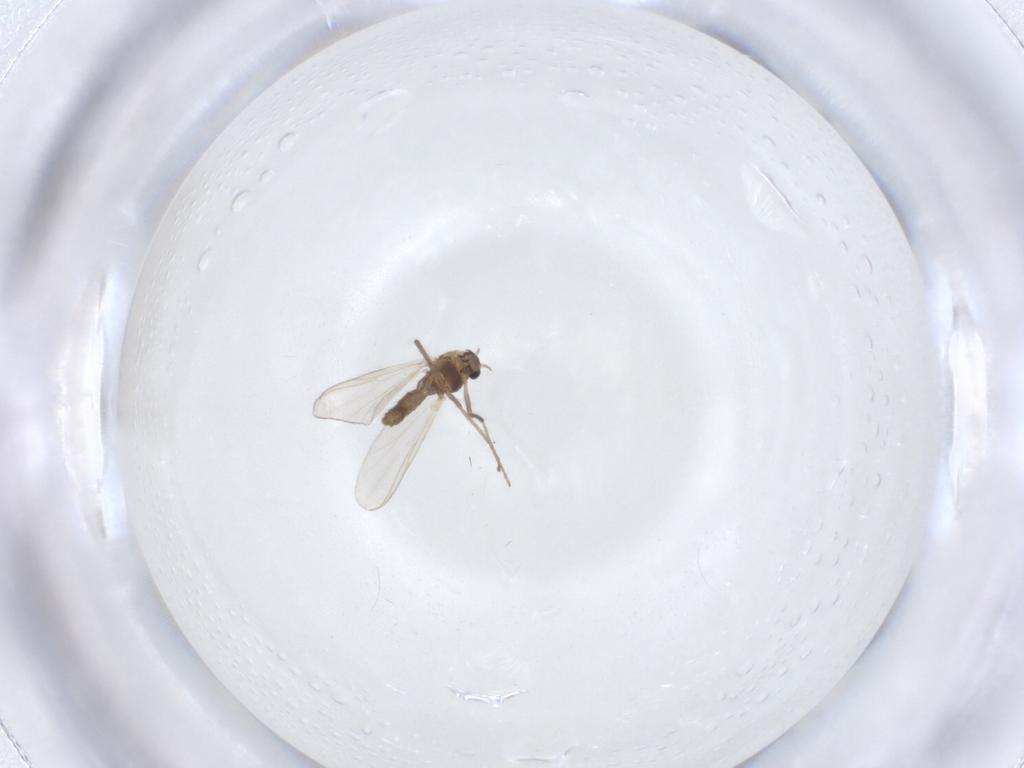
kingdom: Animalia
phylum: Arthropoda
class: Insecta
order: Diptera
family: Chironomidae
